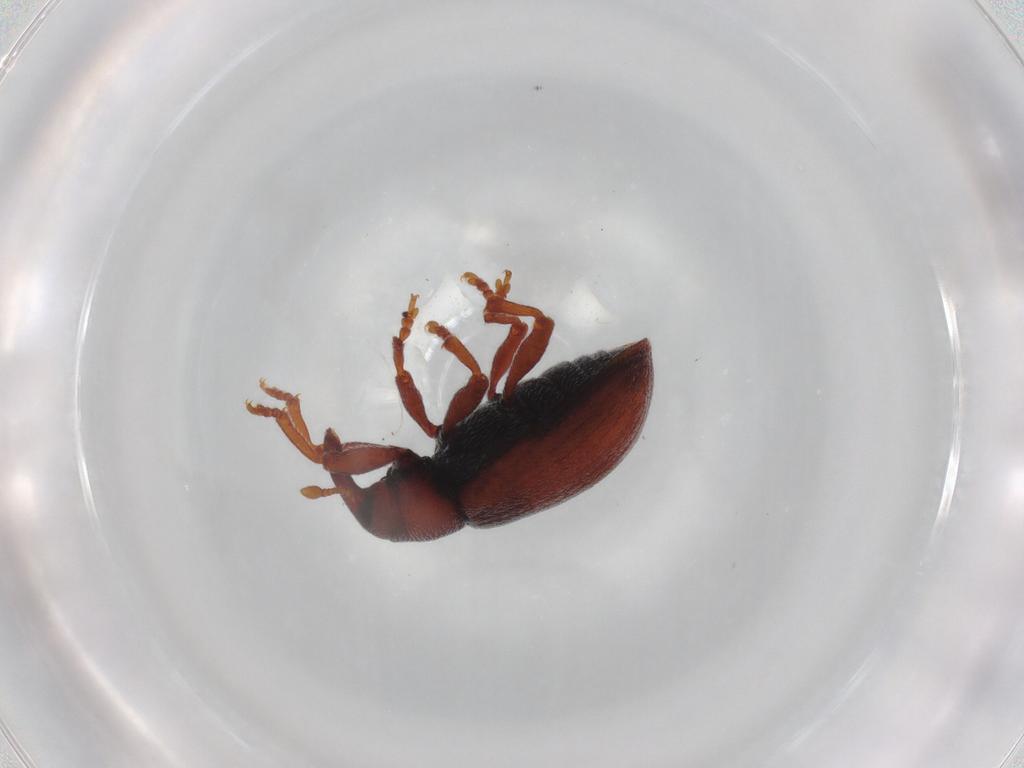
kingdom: Animalia
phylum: Arthropoda
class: Insecta
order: Coleoptera
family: Curculionidae
